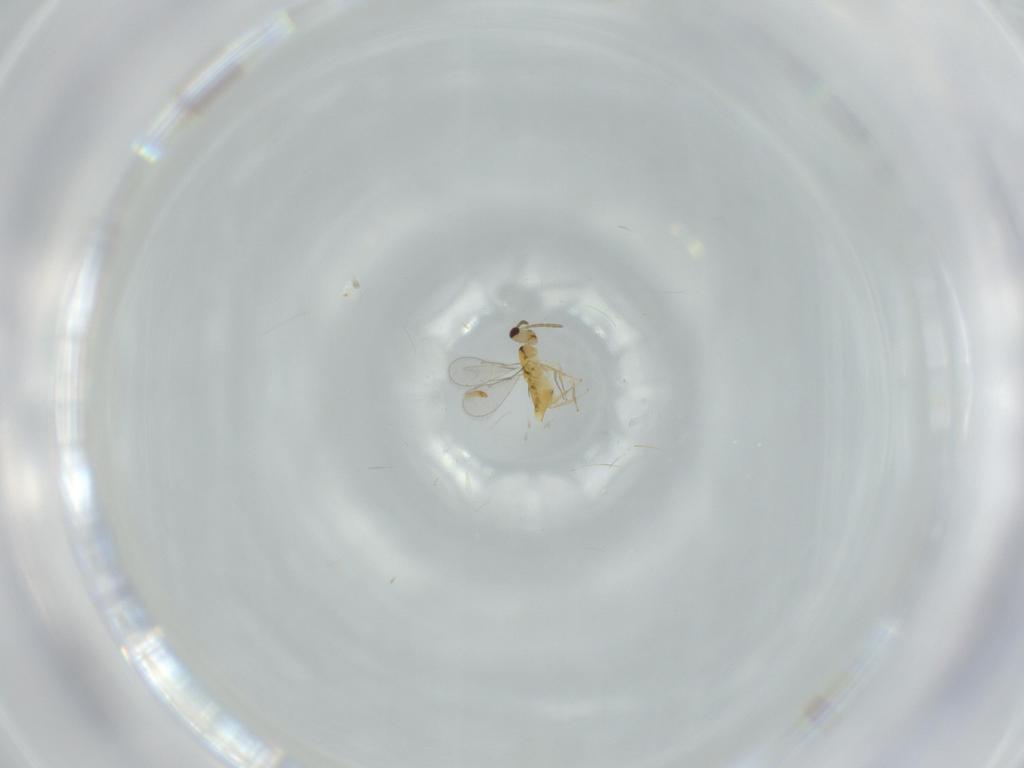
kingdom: Animalia
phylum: Arthropoda
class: Insecta
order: Hymenoptera
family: Aphelinidae
